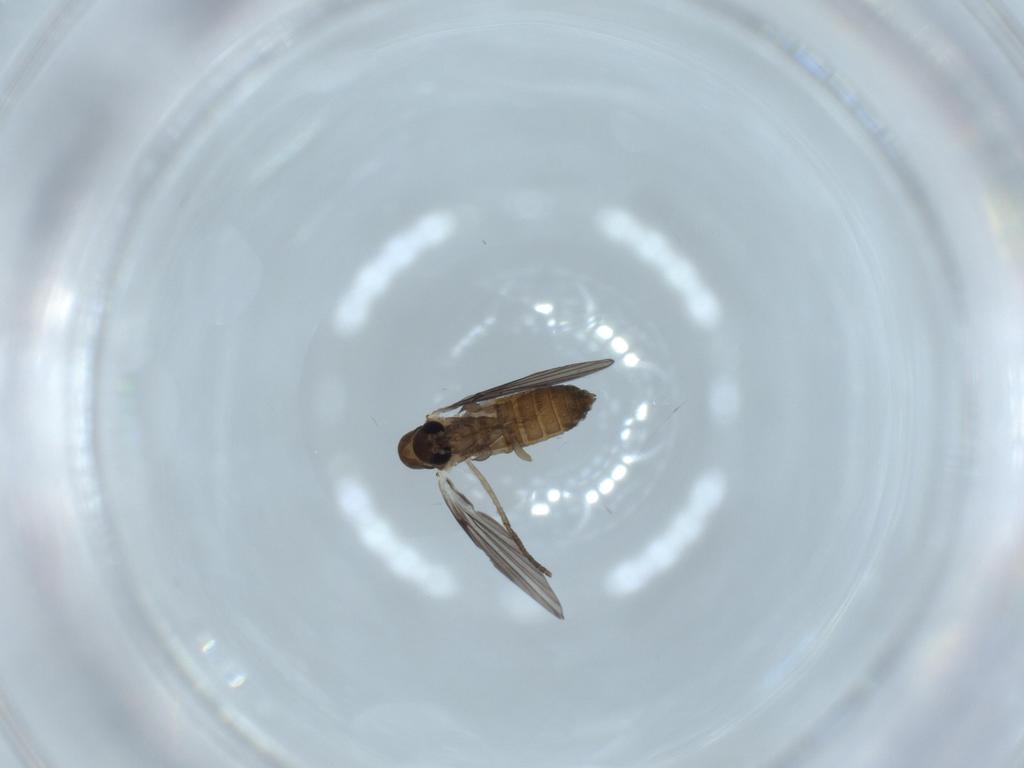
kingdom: Animalia
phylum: Arthropoda
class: Insecta
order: Diptera
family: Psychodidae
